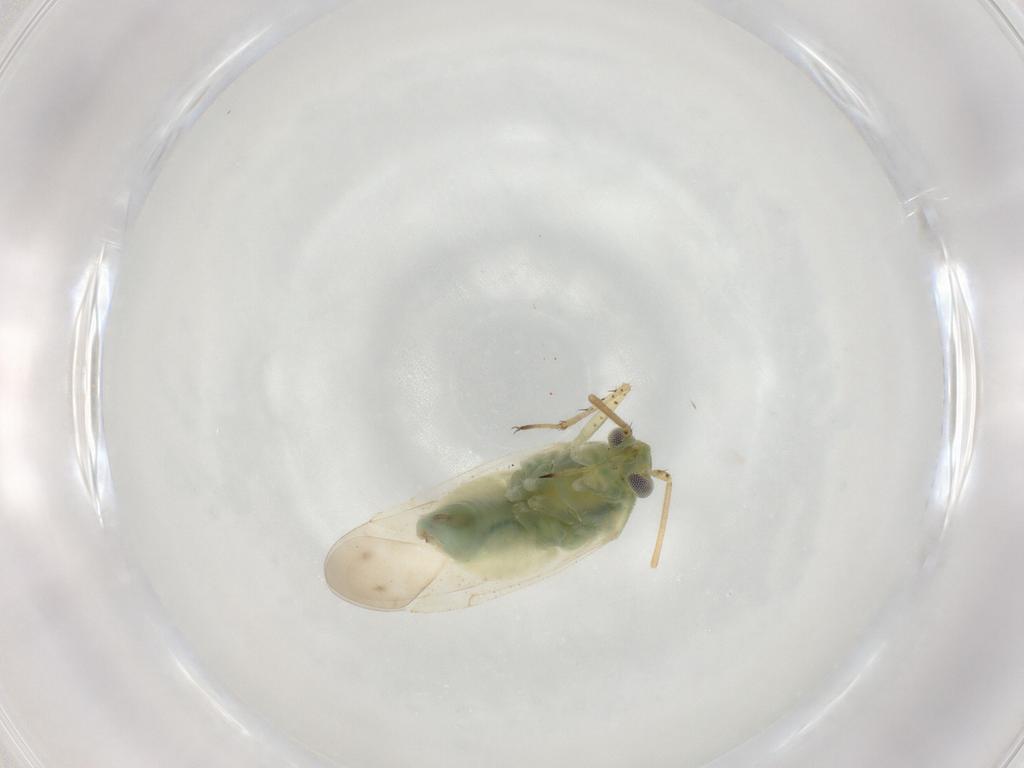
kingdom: Animalia
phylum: Arthropoda
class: Insecta
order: Hemiptera
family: Miridae
